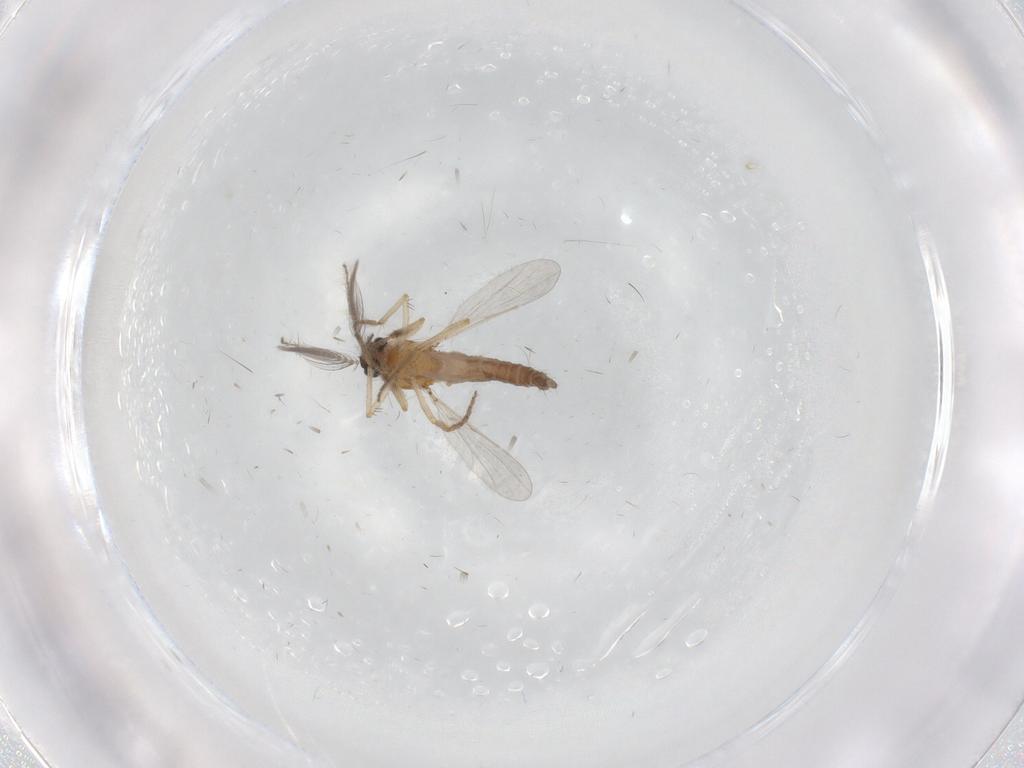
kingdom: Animalia
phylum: Arthropoda
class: Insecta
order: Diptera
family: Ceratopogonidae
